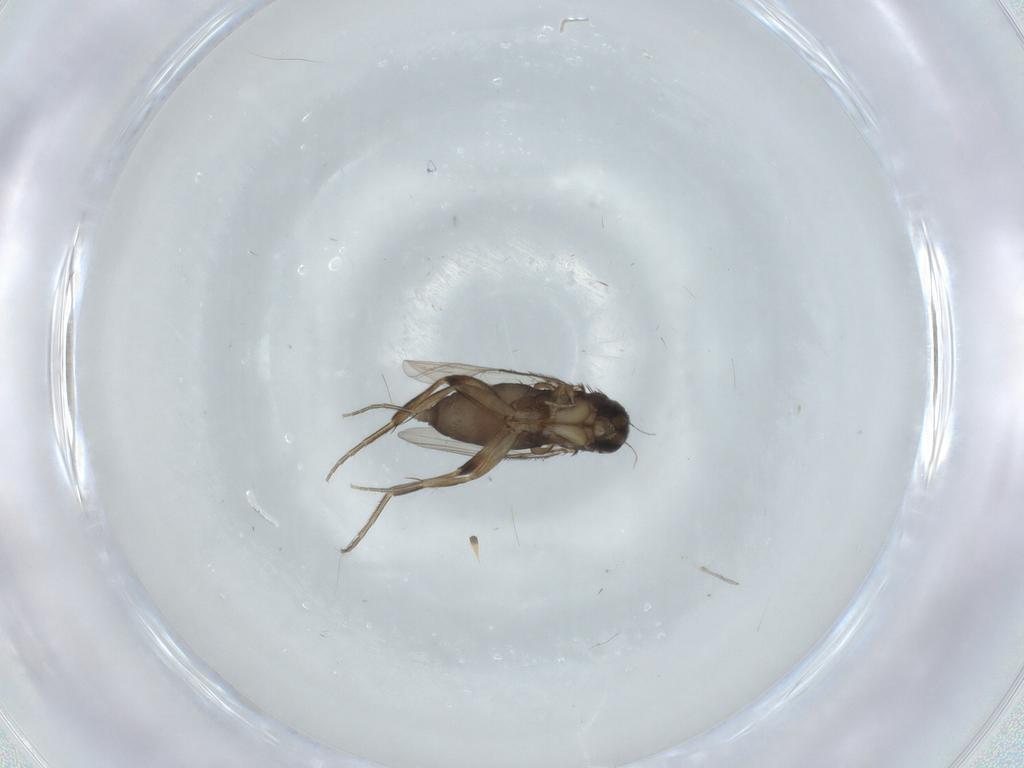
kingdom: Animalia
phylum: Arthropoda
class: Insecta
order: Diptera
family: Phoridae
